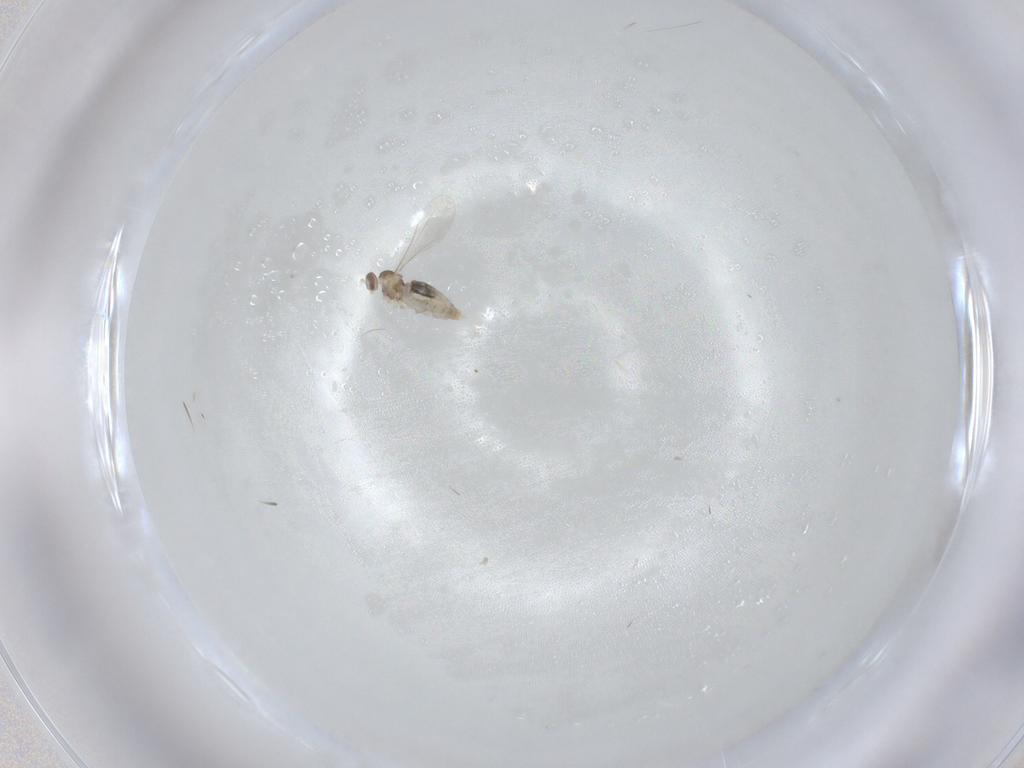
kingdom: Animalia
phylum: Arthropoda
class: Insecta
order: Diptera
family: Cecidomyiidae
